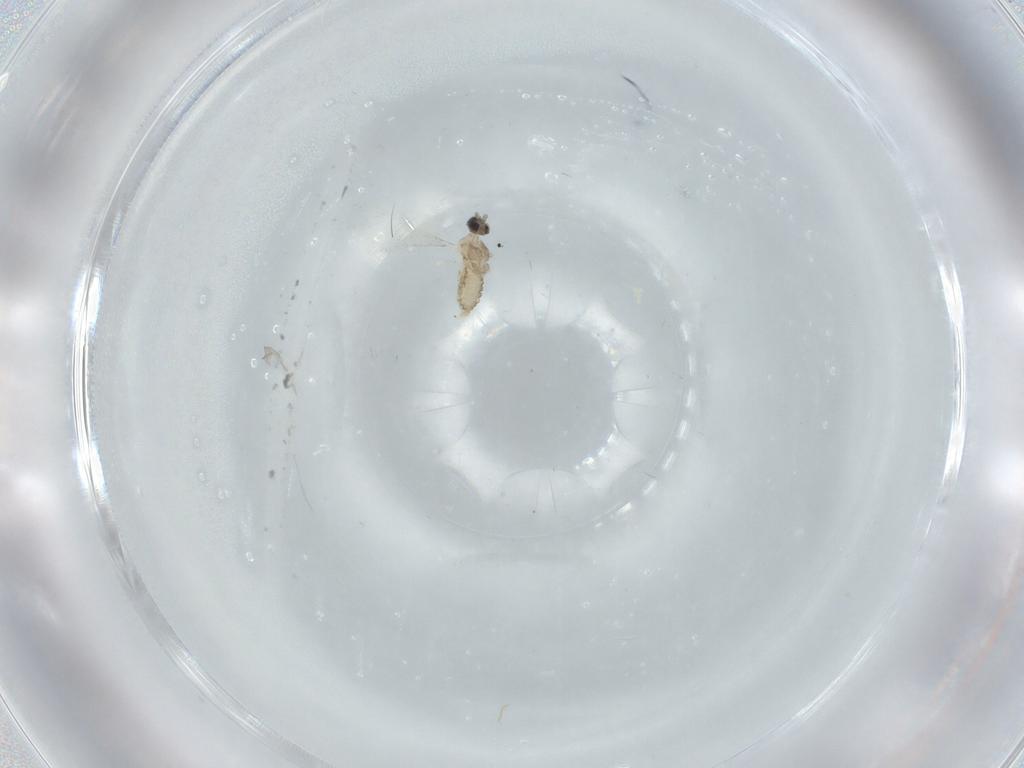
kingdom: Animalia
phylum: Arthropoda
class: Insecta
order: Diptera
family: Cecidomyiidae
